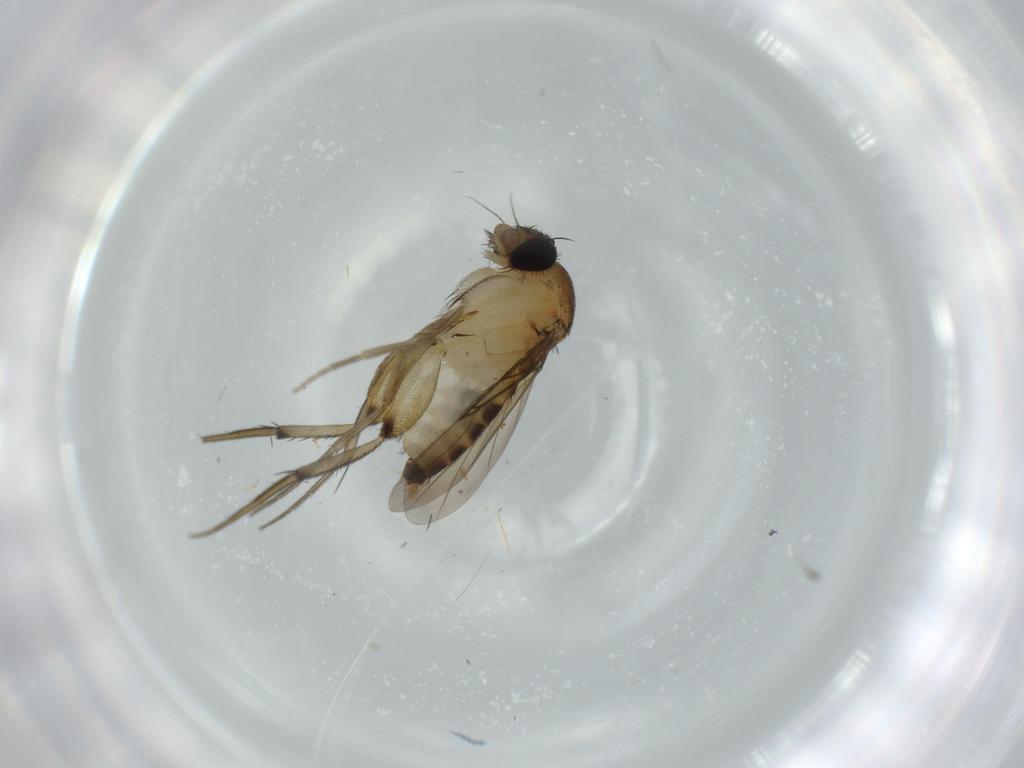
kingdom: Animalia
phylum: Arthropoda
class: Insecta
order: Diptera
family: Phoridae
